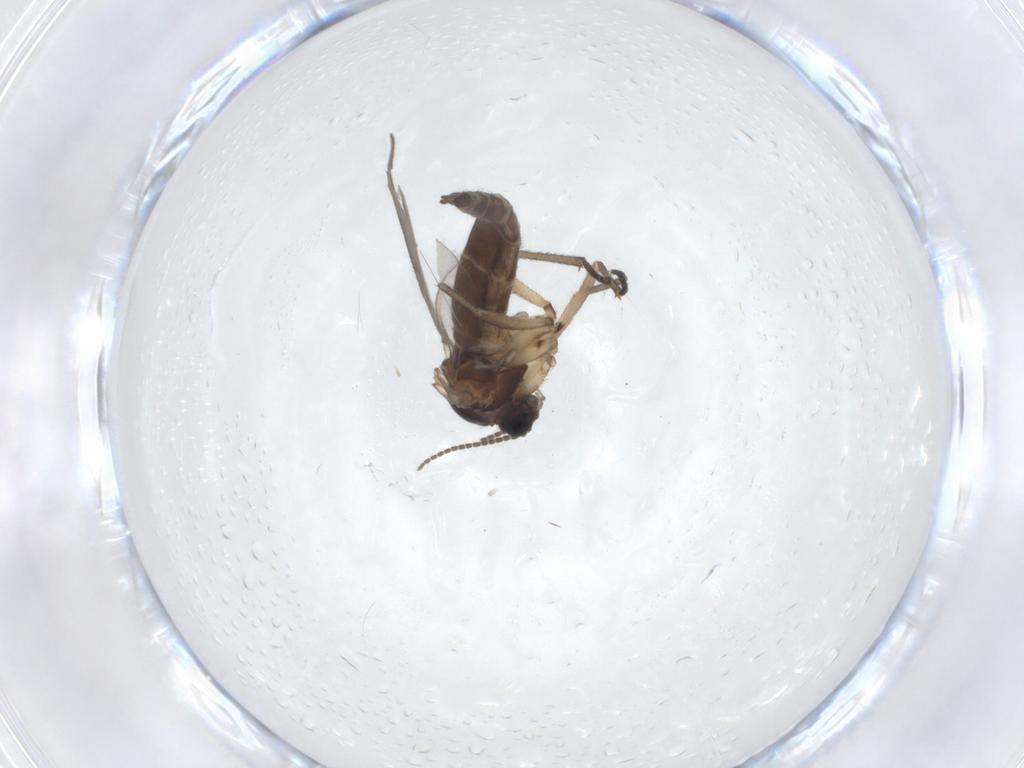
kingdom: Animalia
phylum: Arthropoda
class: Insecta
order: Diptera
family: Sciaridae
